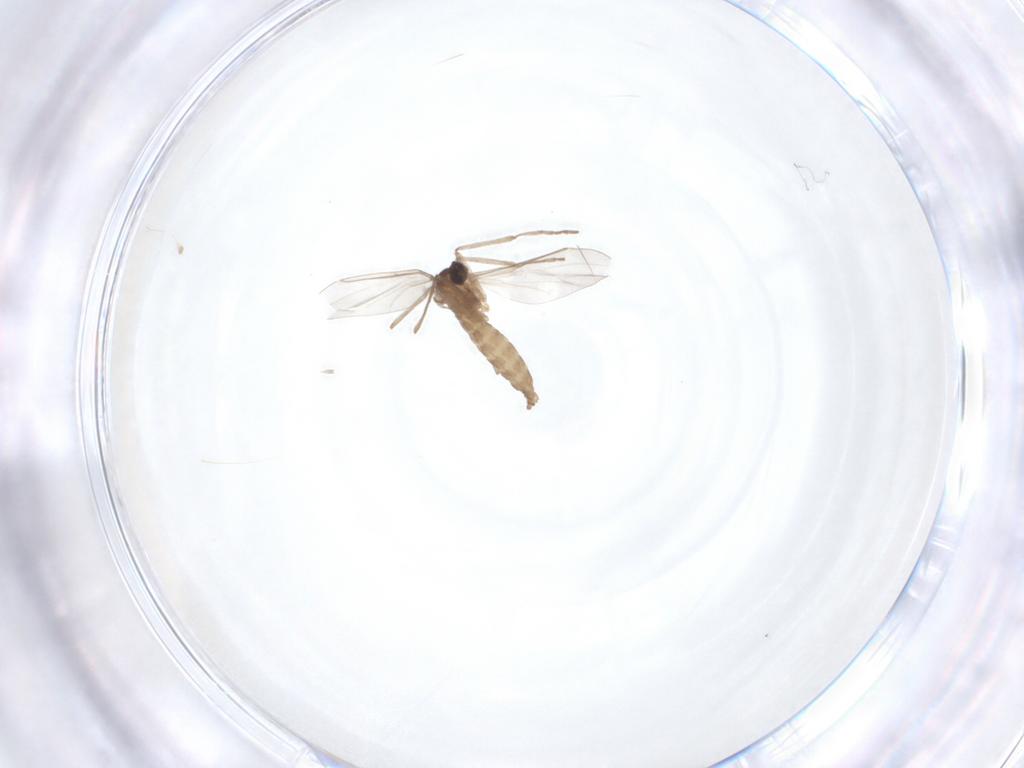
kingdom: Animalia
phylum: Arthropoda
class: Insecta
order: Diptera
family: Cecidomyiidae
